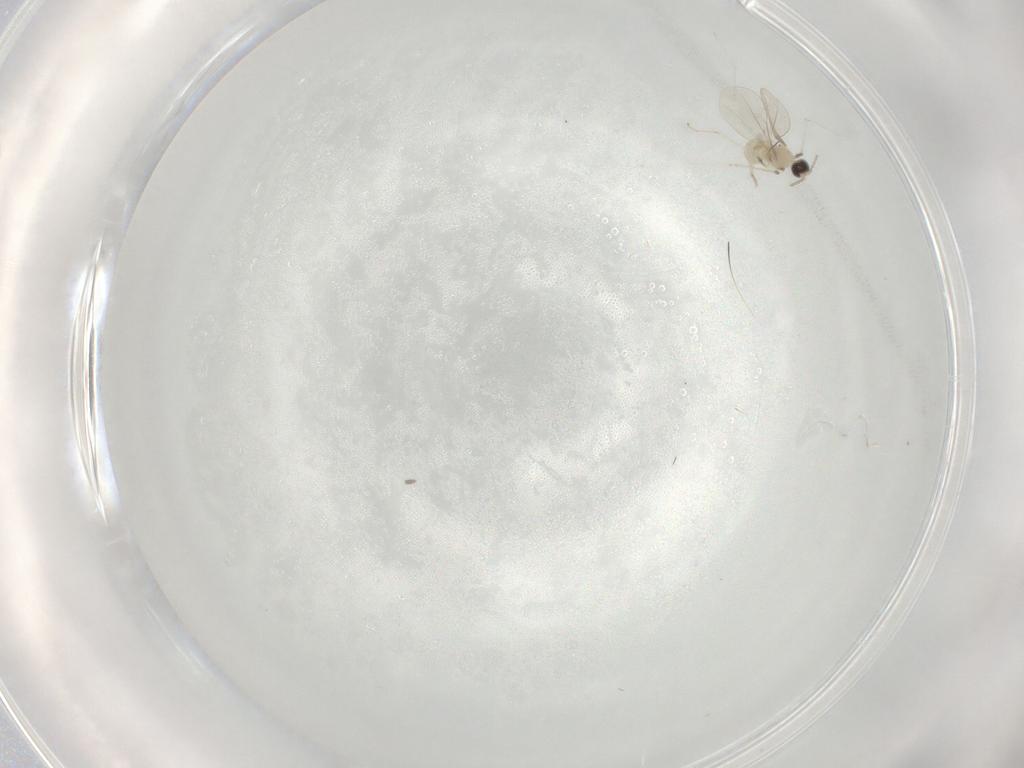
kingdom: Animalia
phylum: Arthropoda
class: Insecta
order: Diptera
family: Cecidomyiidae
